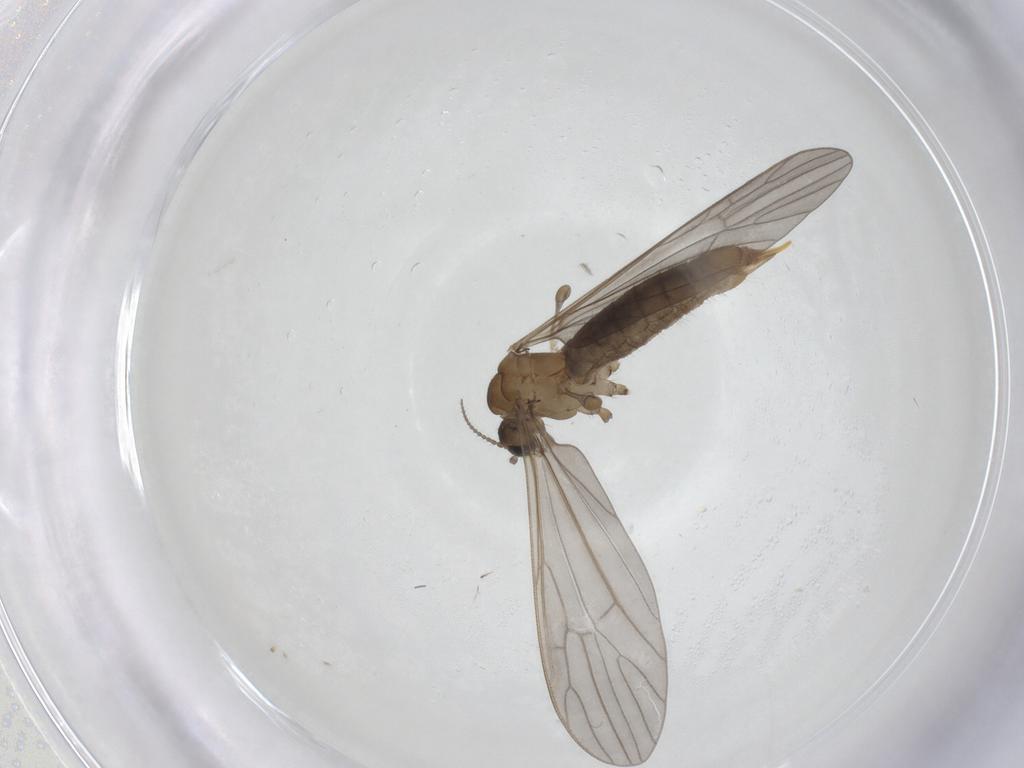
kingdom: Animalia
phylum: Arthropoda
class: Insecta
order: Diptera
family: Limoniidae
